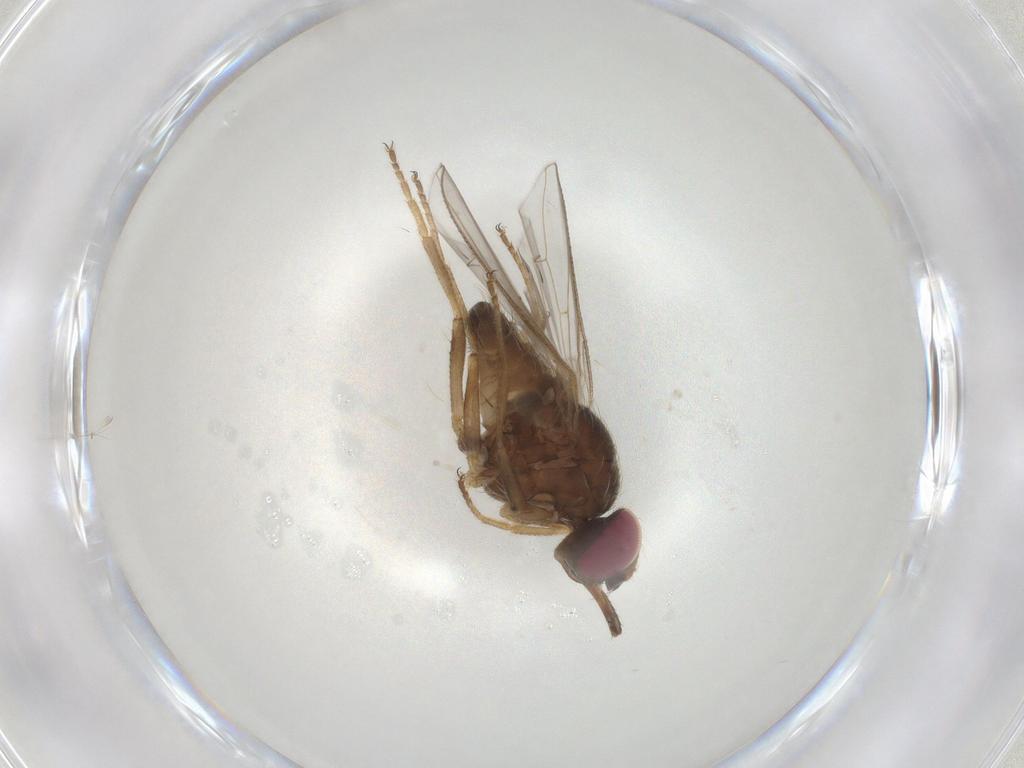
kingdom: Animalia
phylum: Arthropoda
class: Insecta
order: Diptera
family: Muscidae
